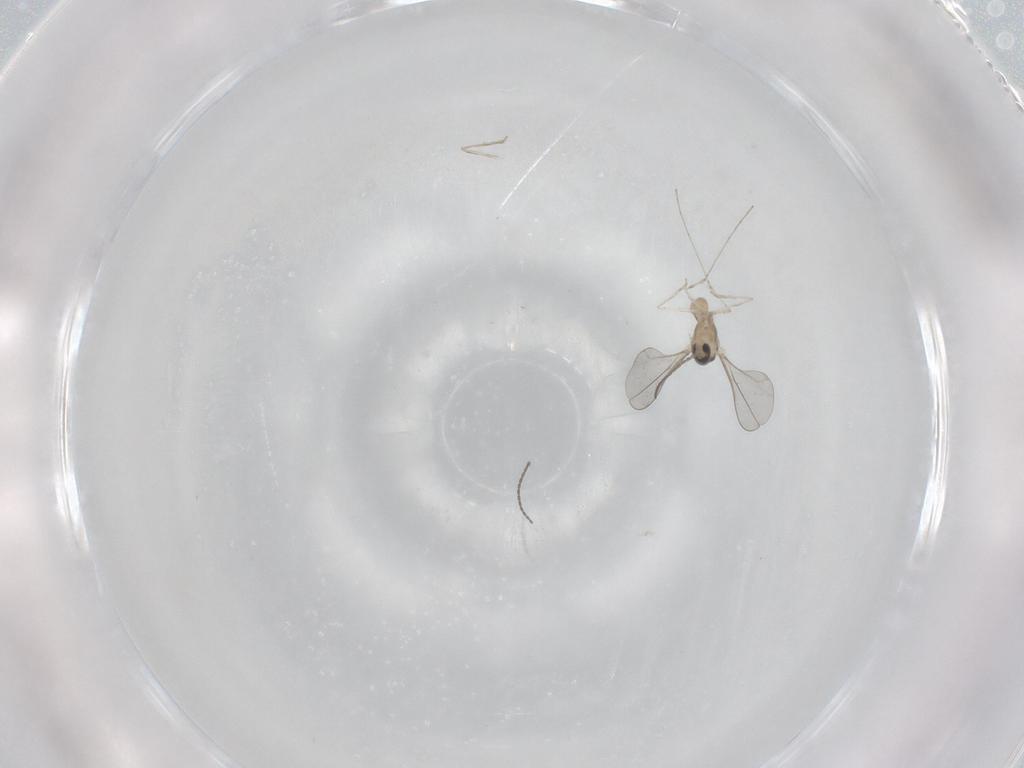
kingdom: Animalia
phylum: Arthropoda
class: Insecta
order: Diptera
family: Cecidomyiidae
